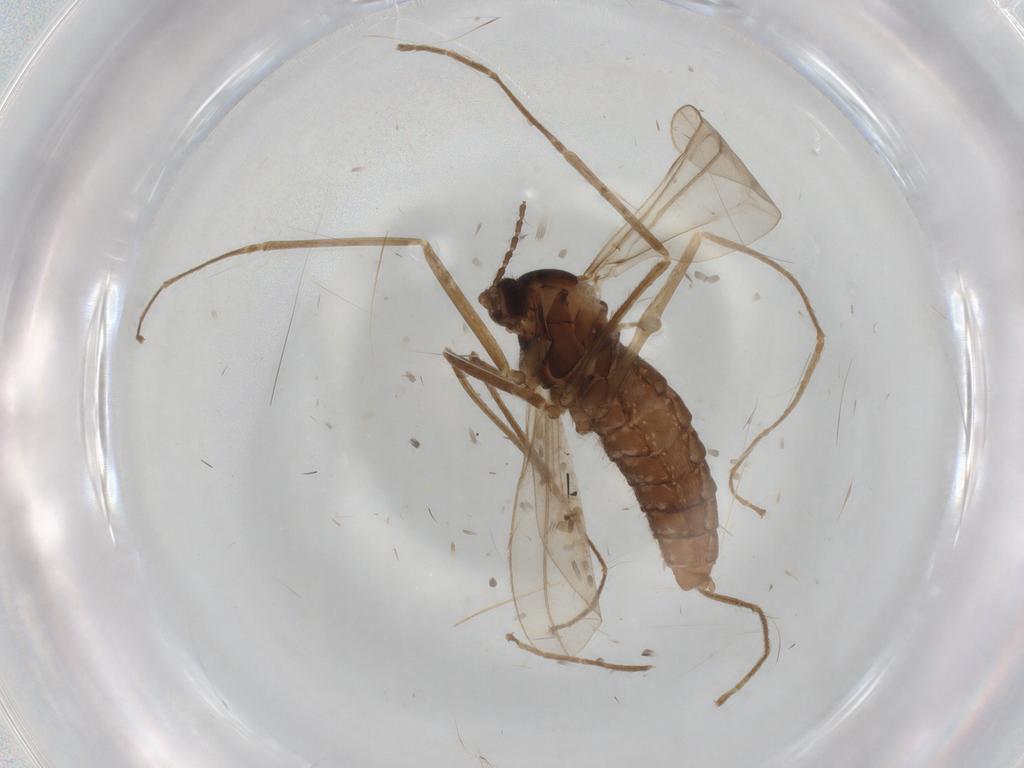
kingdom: Animalia
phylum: Arthropoda
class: Insecta
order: Diptera
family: Cecidomyiidae
